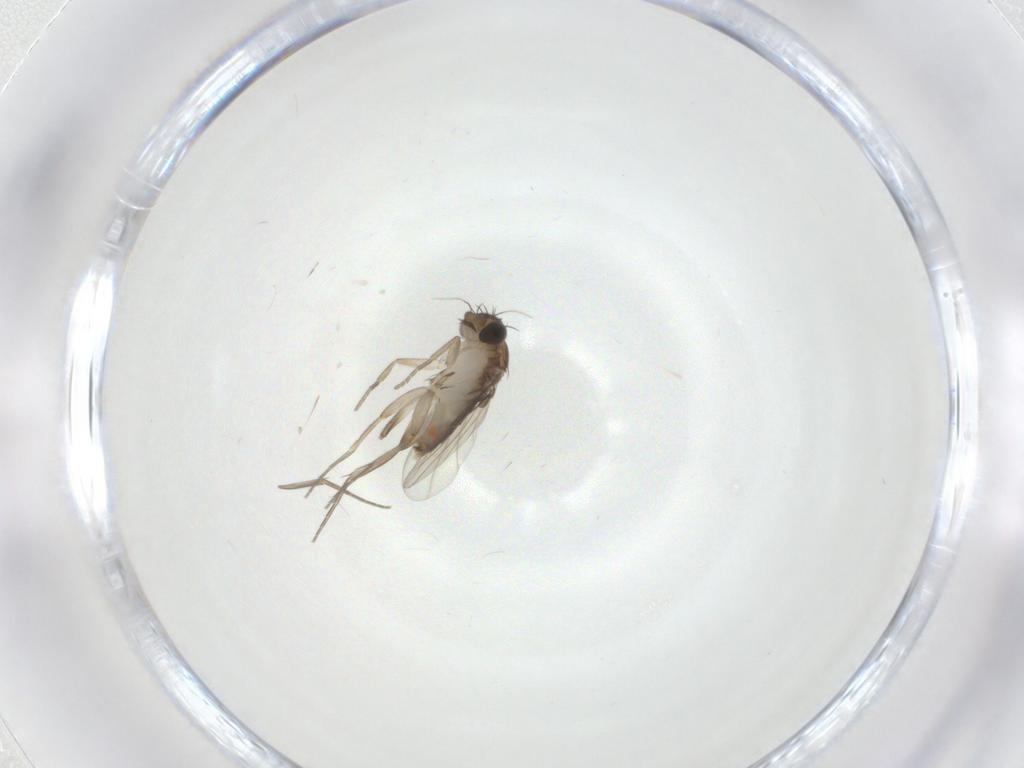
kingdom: Animalia
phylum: Arthropoda
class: Insecta
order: Diptera
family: Phoridae
